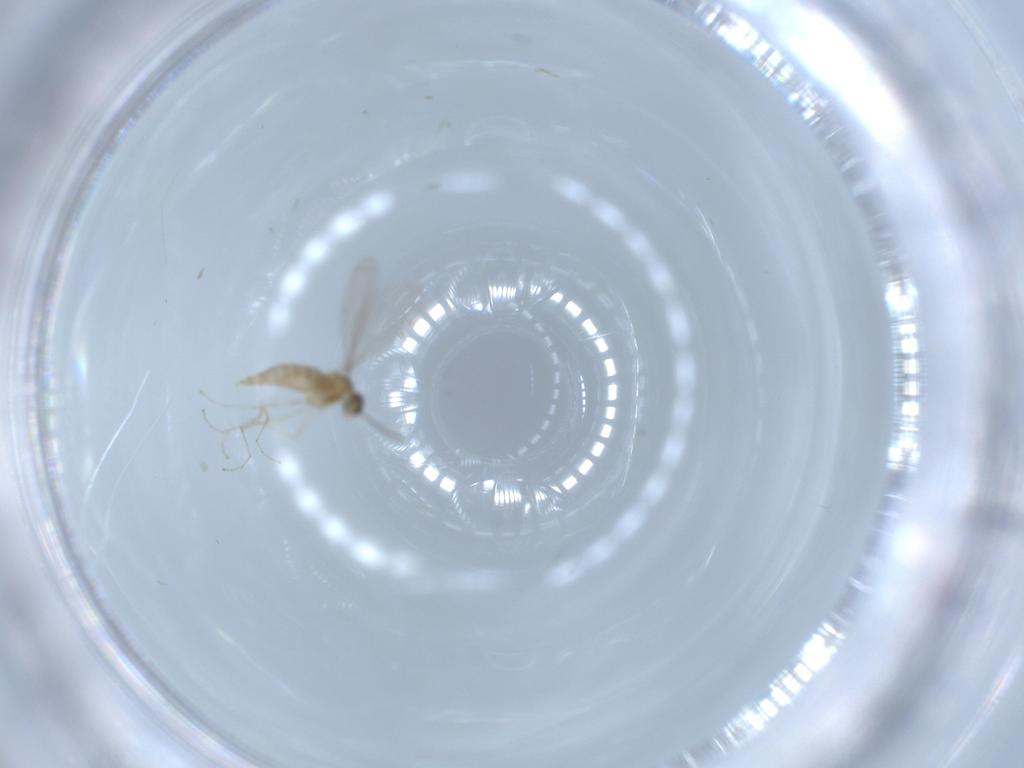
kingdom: Animalia
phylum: Arthropoda
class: Insecta
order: Diptera
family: Cecidomyiidae
